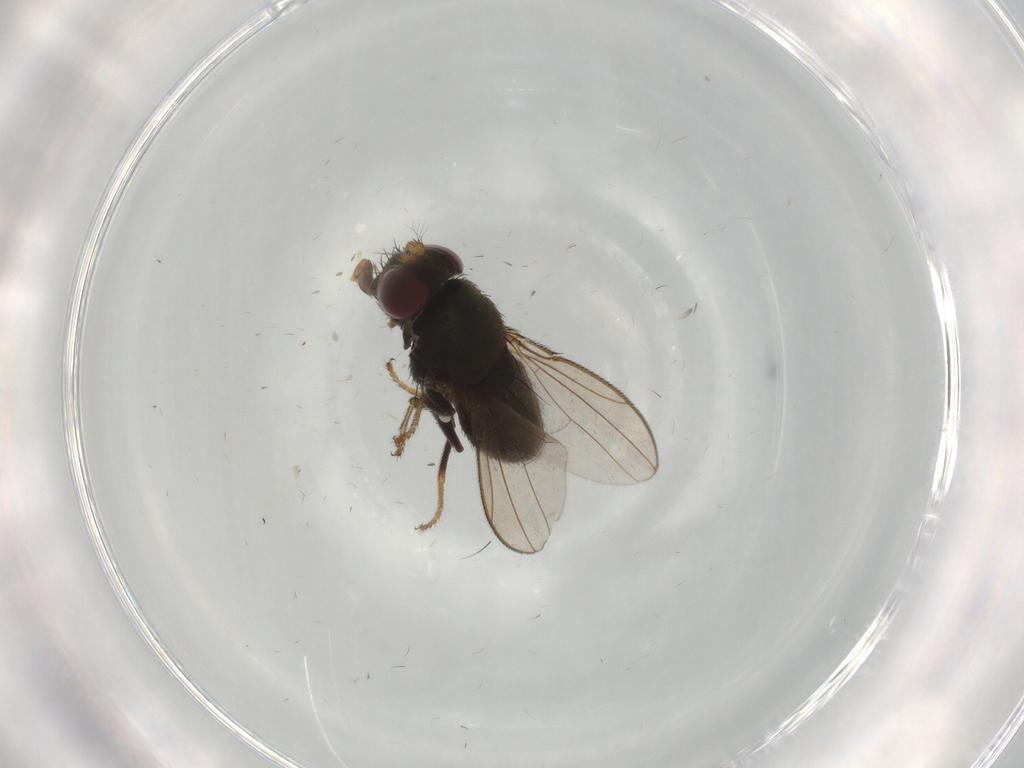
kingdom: Animalia
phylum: Arthropoda
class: Insecta
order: Diptera
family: Ephydridae
